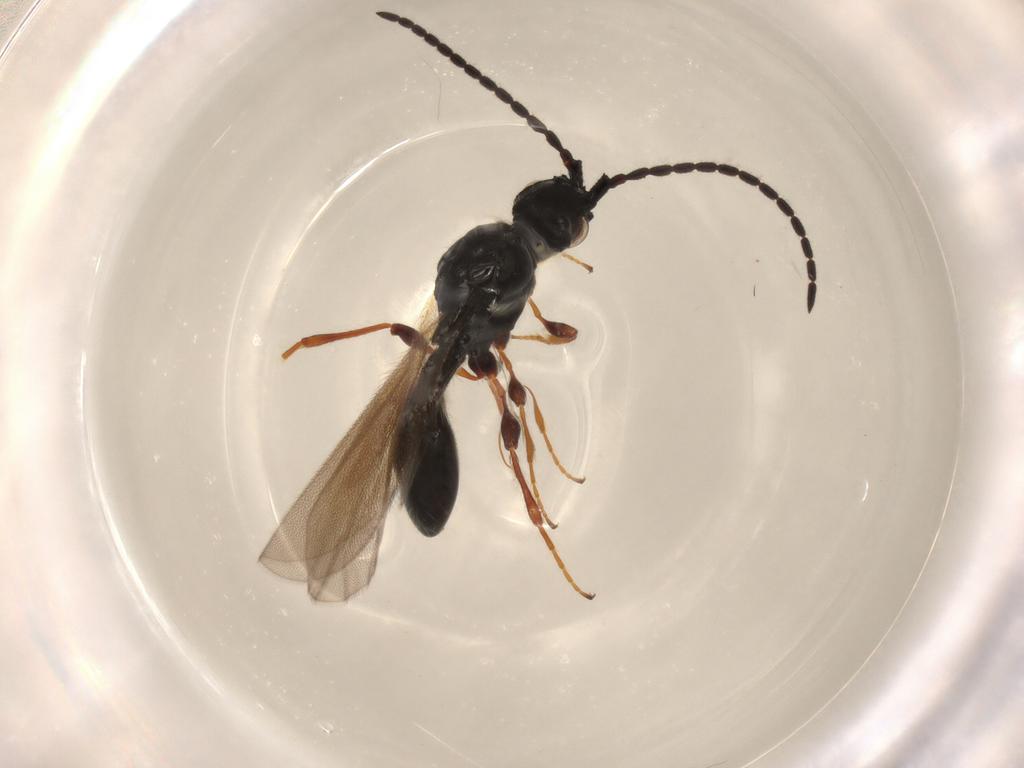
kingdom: Animalia
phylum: Arthropoda
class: Insecta
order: Hymenoptera
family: Diapriidae
